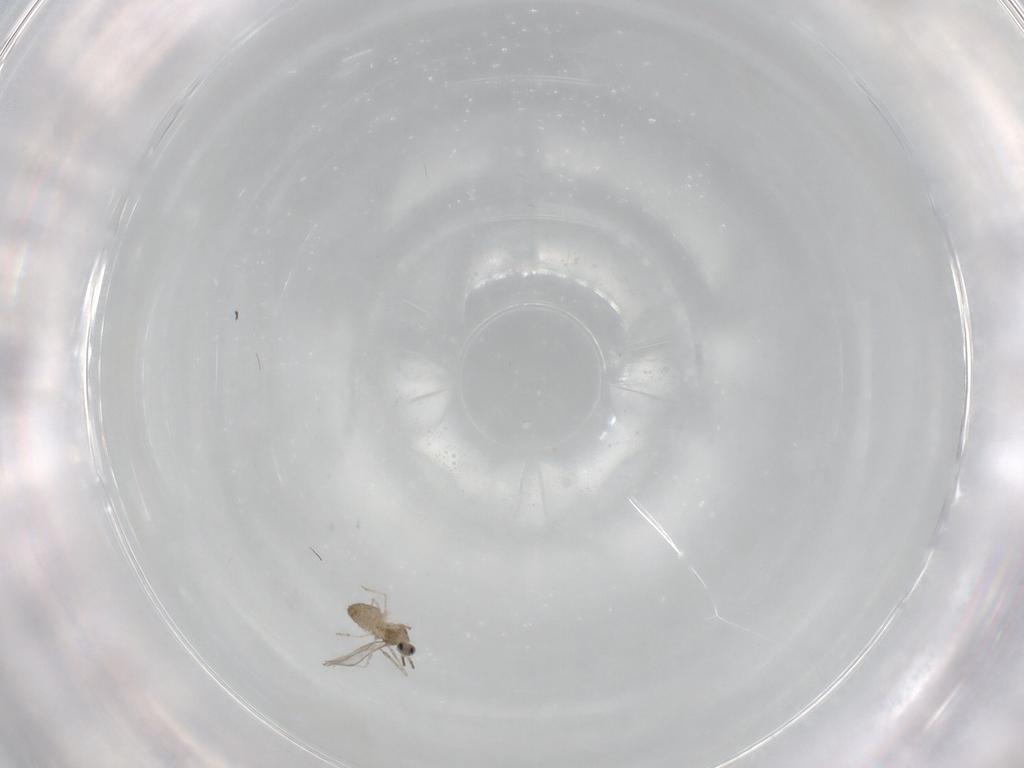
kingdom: Animalia
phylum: Arthropoda
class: Insecta
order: Diptera
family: Cecidomyiidae
